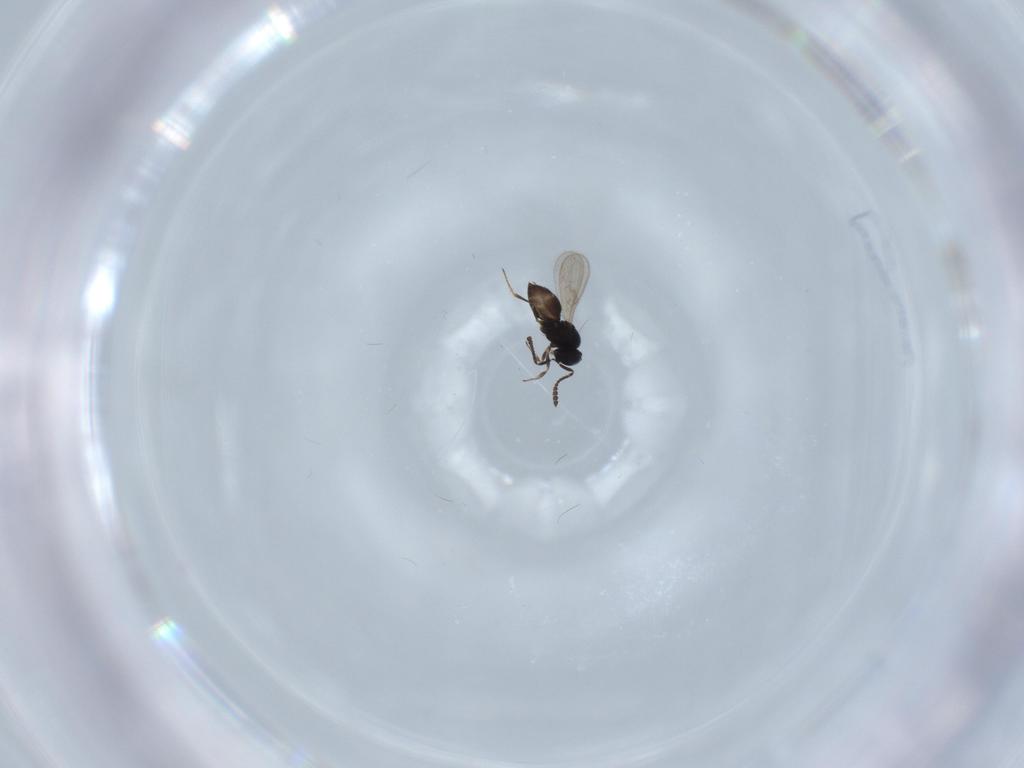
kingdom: Animalia
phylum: Arthropoda
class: Insecta
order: Hymenoptera
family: Scelionidae
